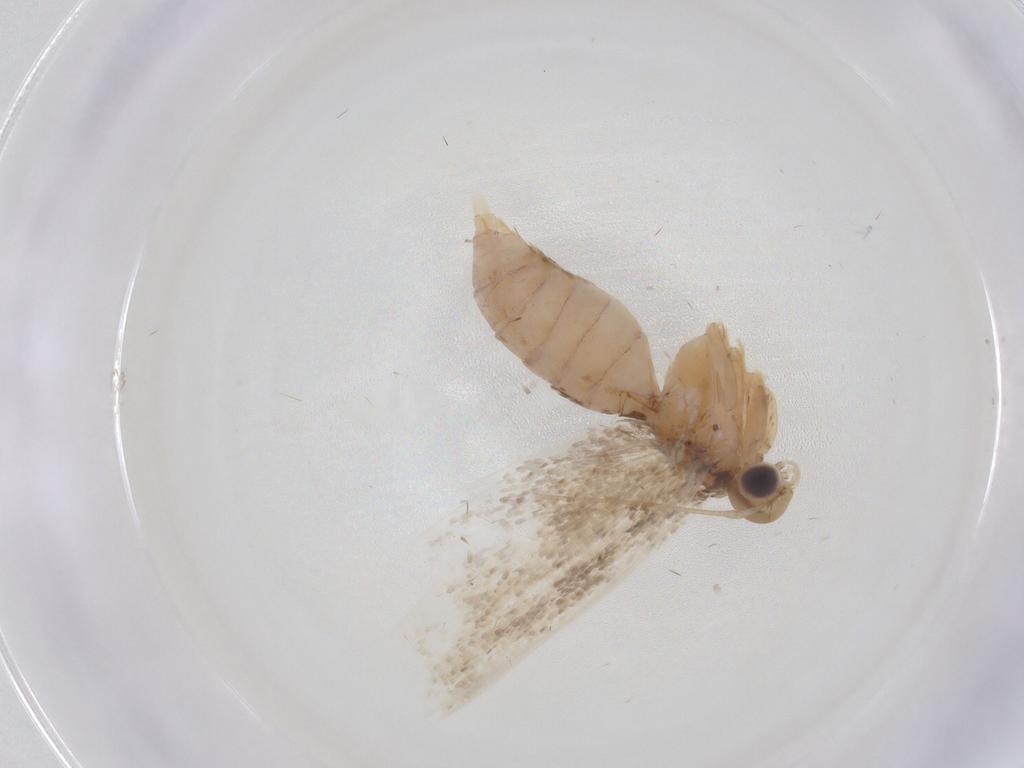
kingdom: Animalia
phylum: Arthropoda
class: Insecta
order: Lepidoptera
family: Gelechiidae
